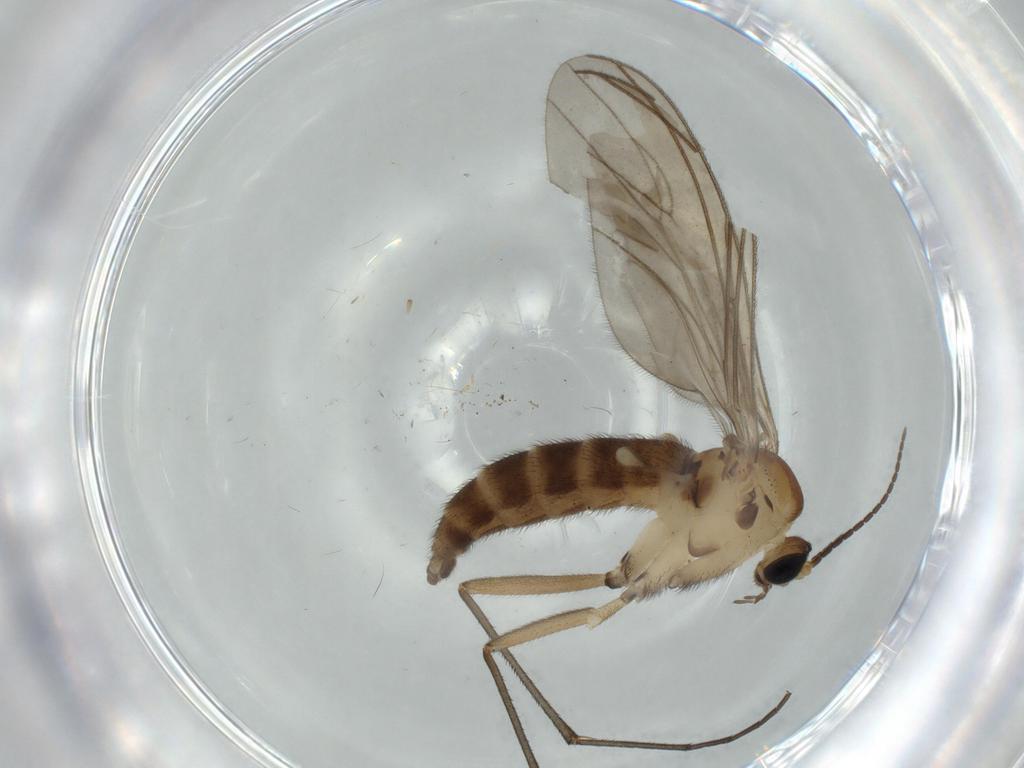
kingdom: Animalia
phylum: Arthropoda
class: Insecta
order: Diptera
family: Sciaridae
